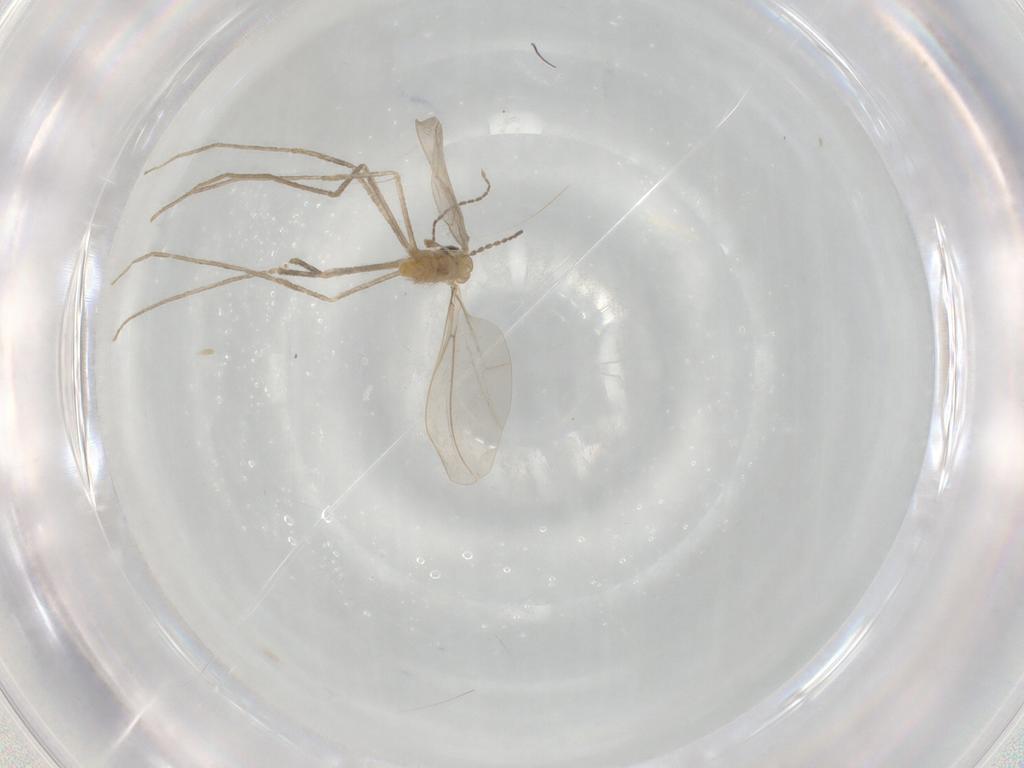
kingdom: Animalia
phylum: Arthropoda
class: Insecta
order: Diptera
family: Cecidomyiidae
